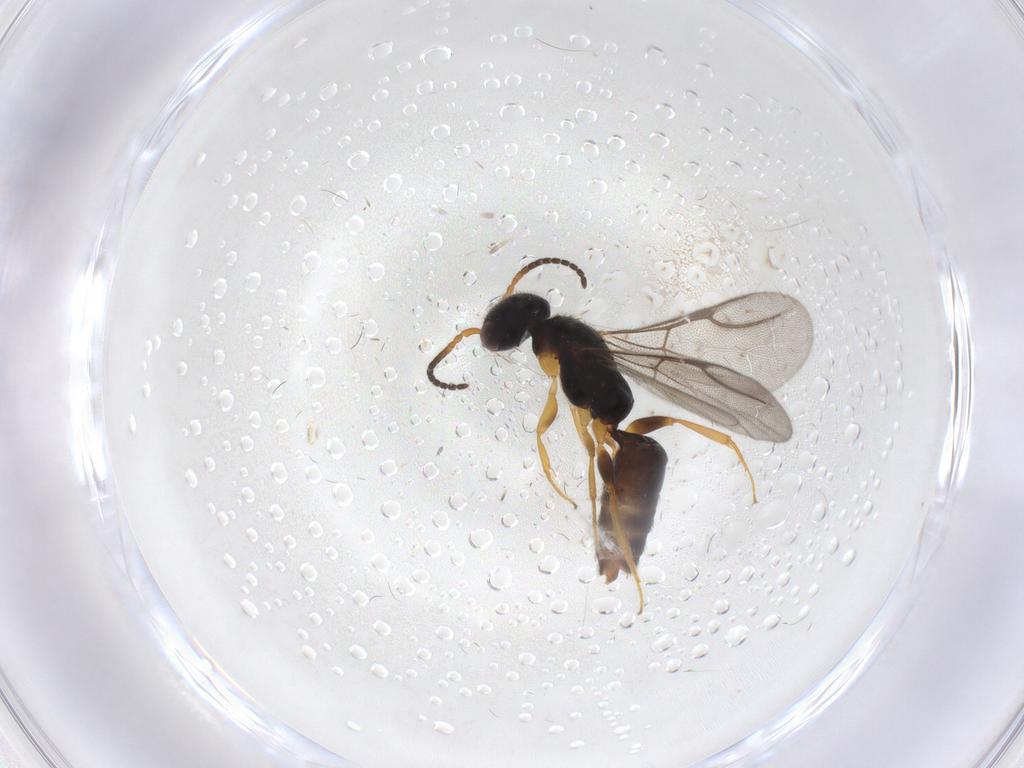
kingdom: Animalia
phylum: Arthropoda
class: Insecta
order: Hymenoptera
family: Bethylidae
